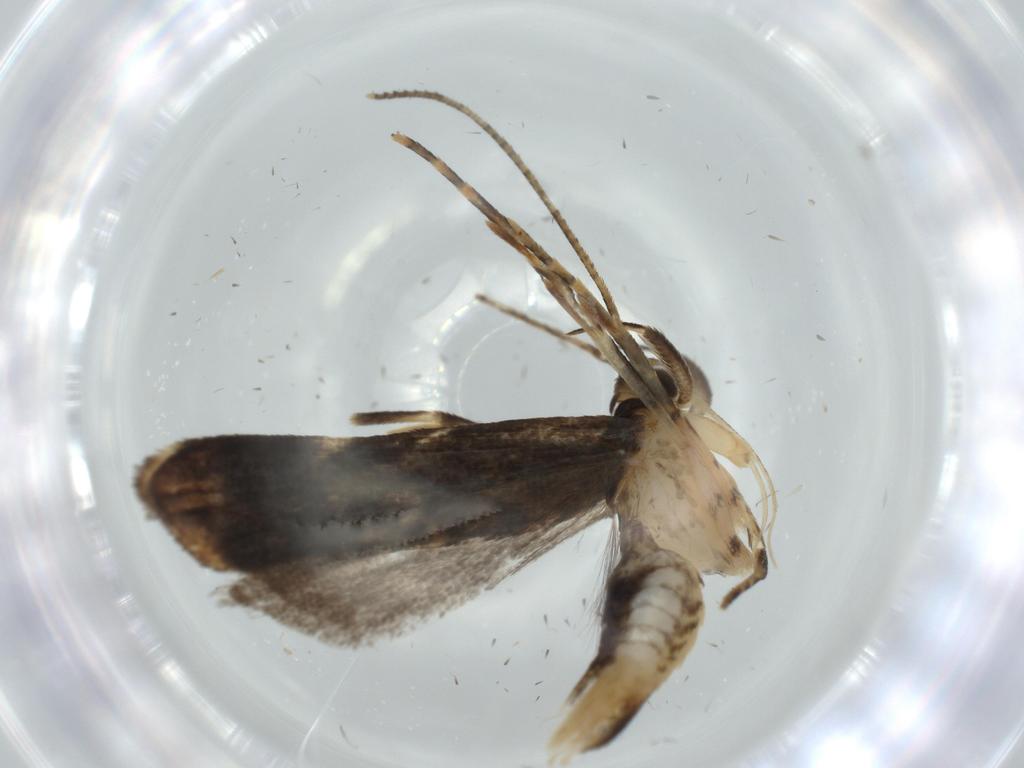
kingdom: Animalia
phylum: Arthropoda
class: Insecta
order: Lepidoptera
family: Cosmopterigidae
